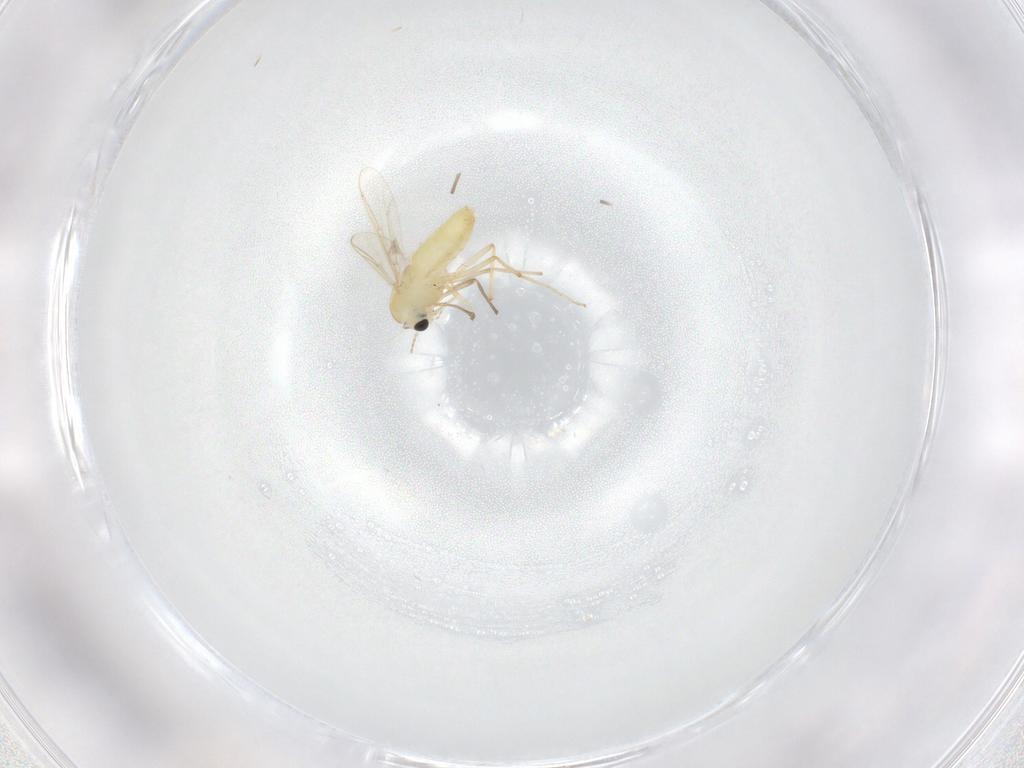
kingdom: Animalia
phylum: Arthropoda
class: Insecta
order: Diptera
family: Chironomidae
